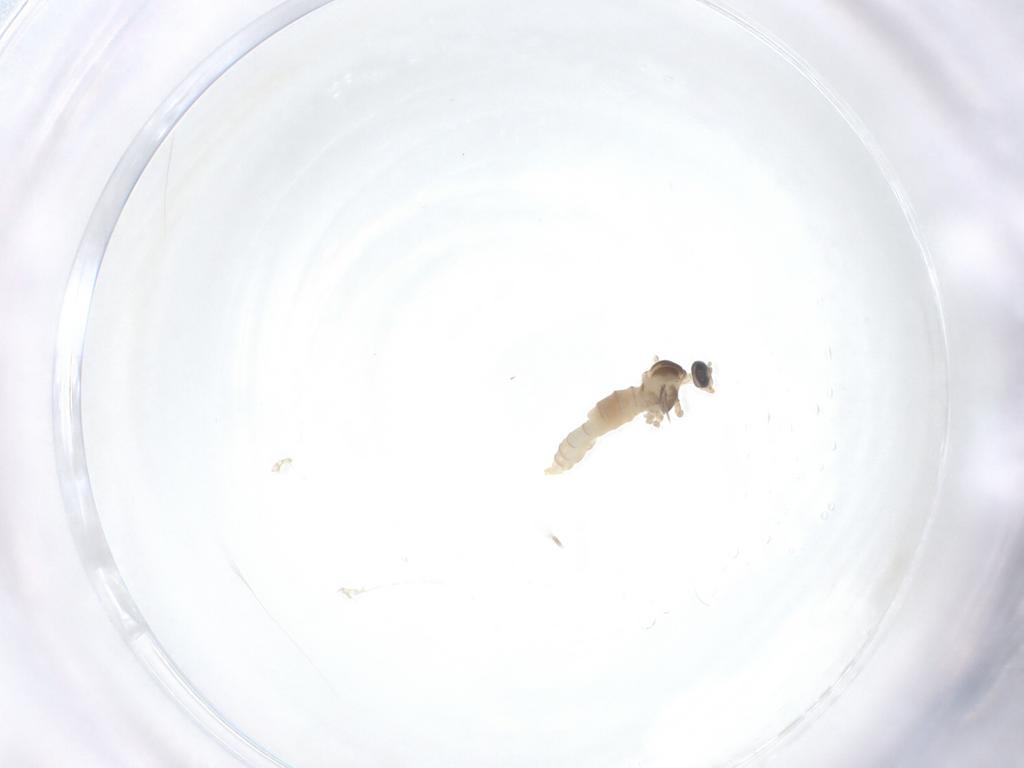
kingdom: Animalia
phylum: Arthropoda
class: Insecta
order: Diptera
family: Cecidomyiidae
